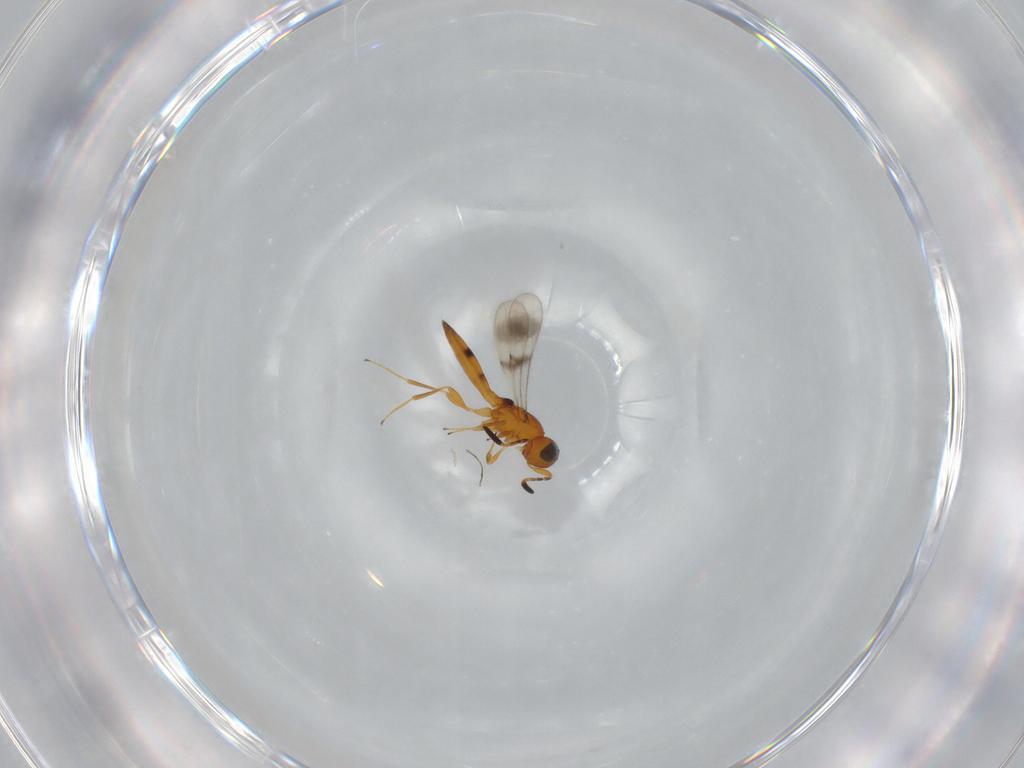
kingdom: Animalia
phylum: Arthropoda
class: Insecta
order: Hymenoptera
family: Scelionidae
